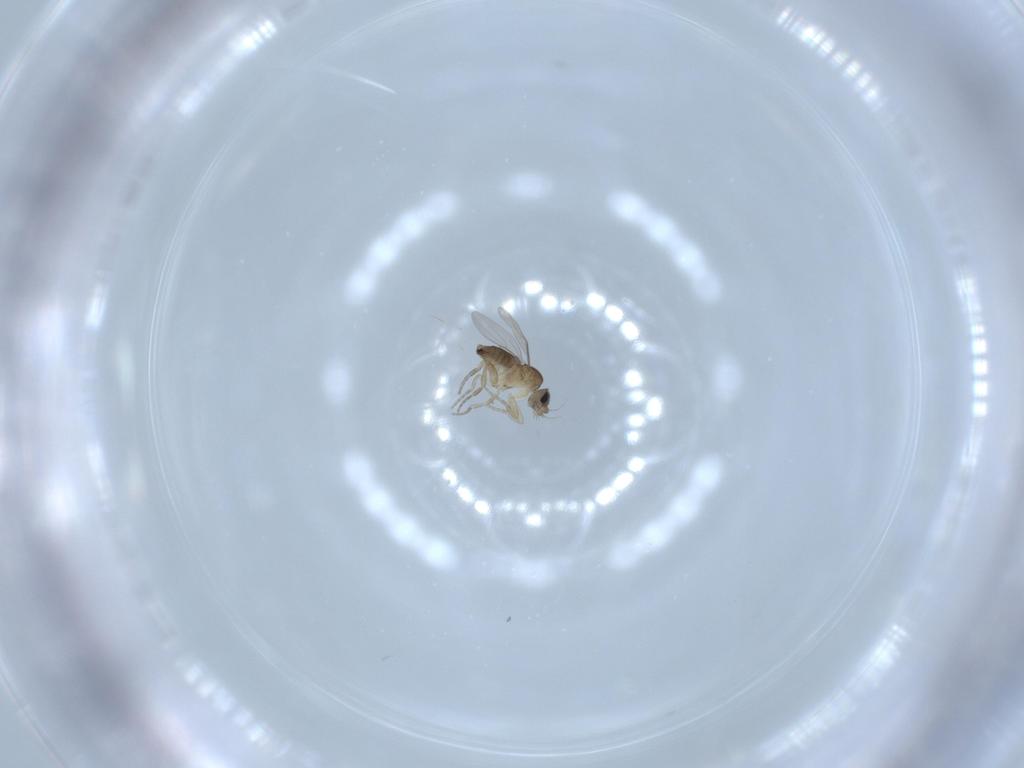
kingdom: Animalia
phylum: Arthropoda
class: Insecta
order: Diptera
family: Phoridae
